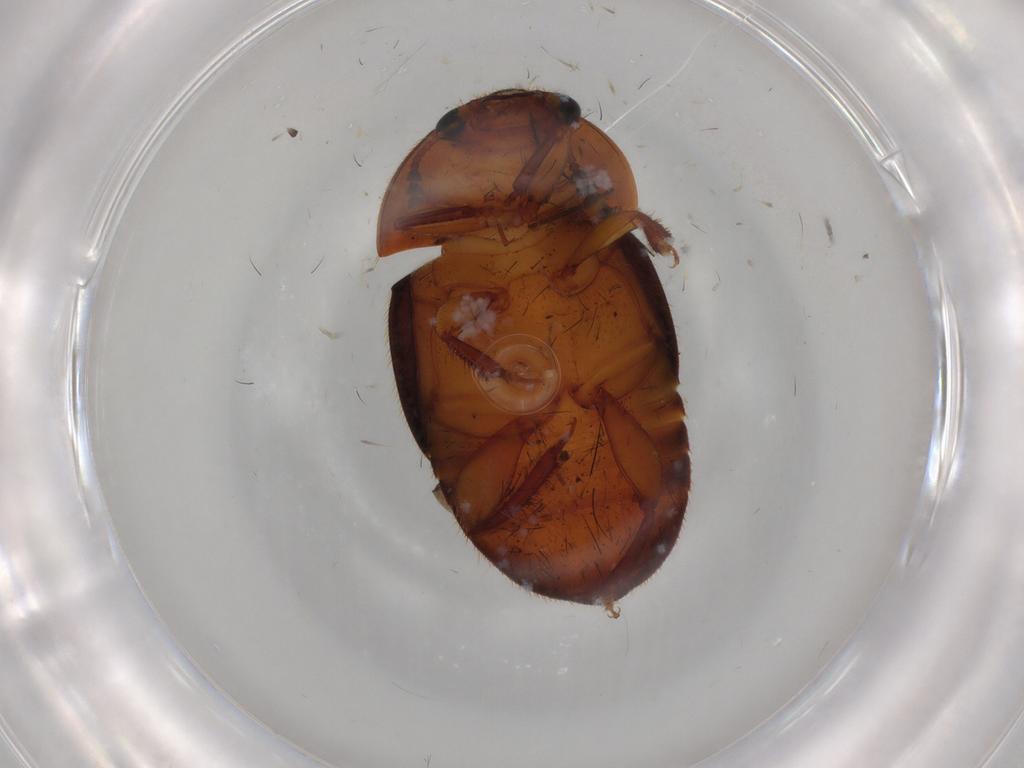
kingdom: Animalia
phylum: Arthropoda
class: Insecta
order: Coleoptera
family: Nitidulidae
